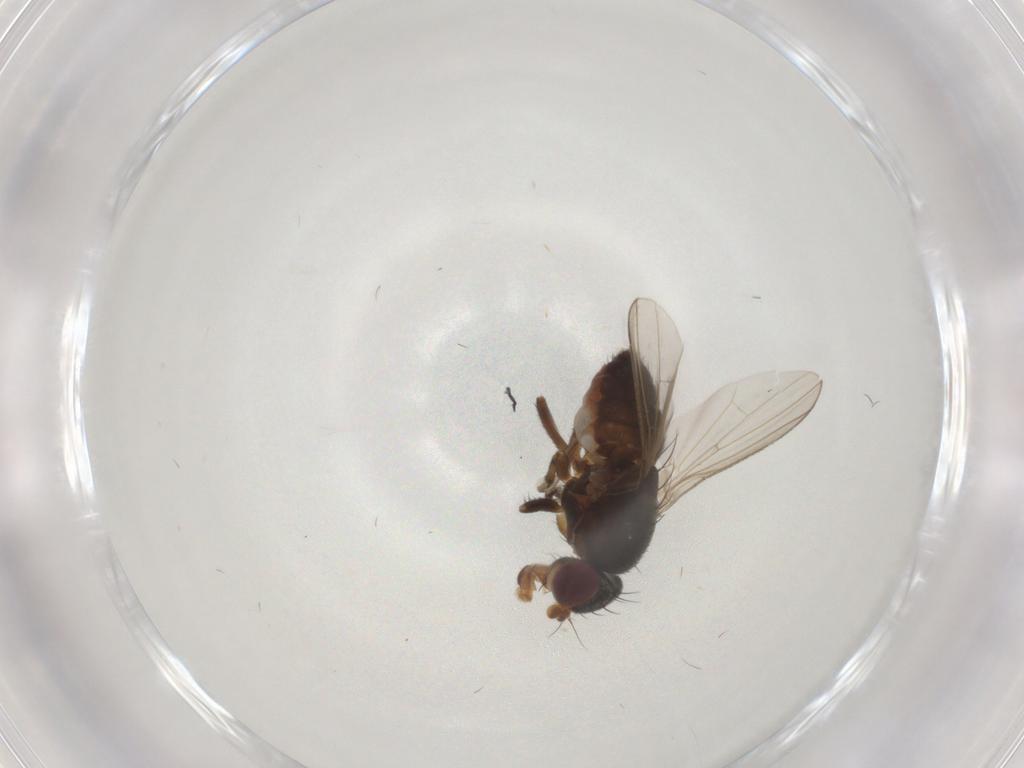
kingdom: Animalia
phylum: Arthropoda
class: Insecta
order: Diptera
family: Heleomyzidae
